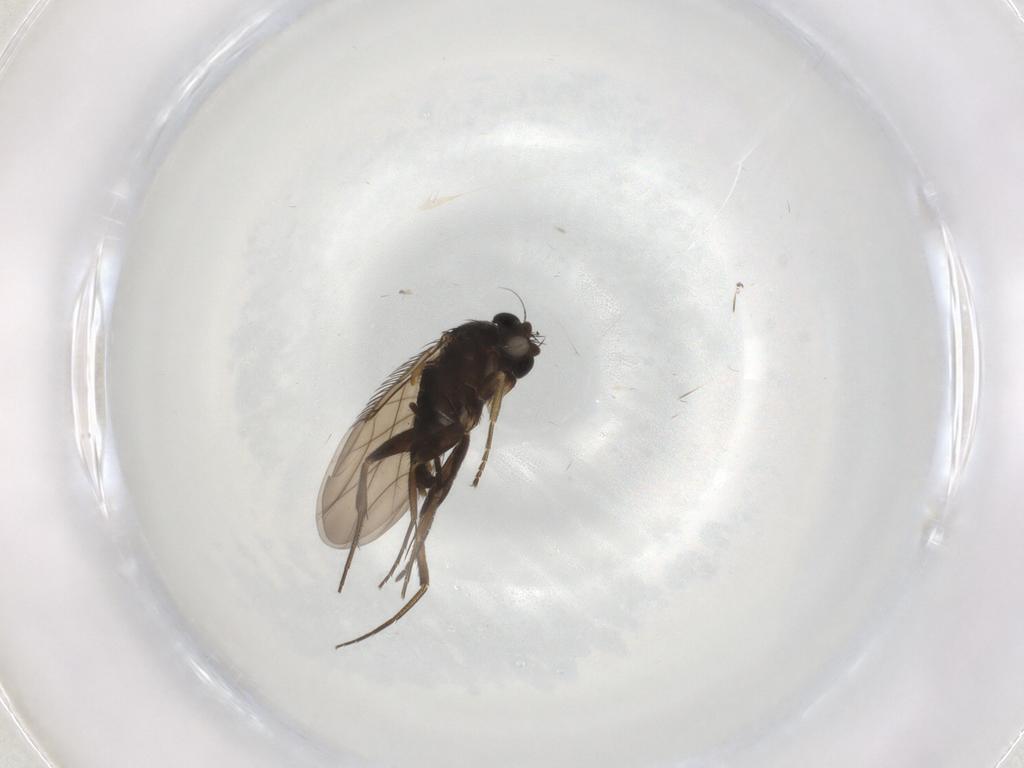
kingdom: Animalia
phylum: Arthropoda
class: Insecta
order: Diptera
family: Phoridae
